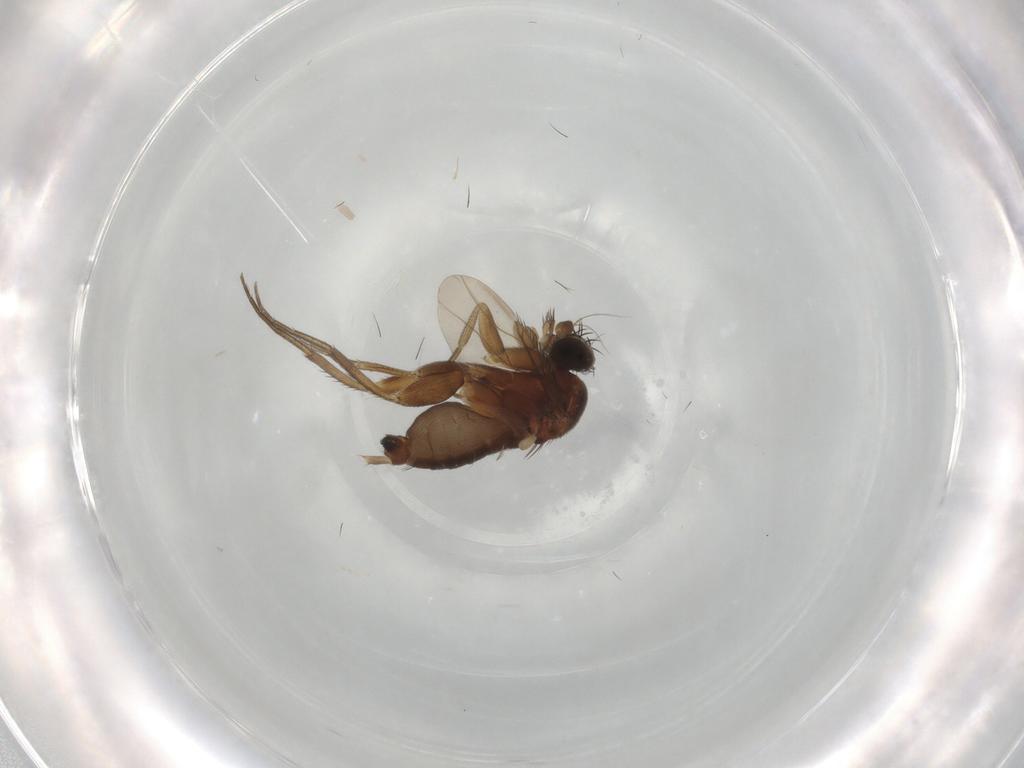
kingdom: Animalia
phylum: Arthropoda
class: Insecta
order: Diptera
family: Phoridae
